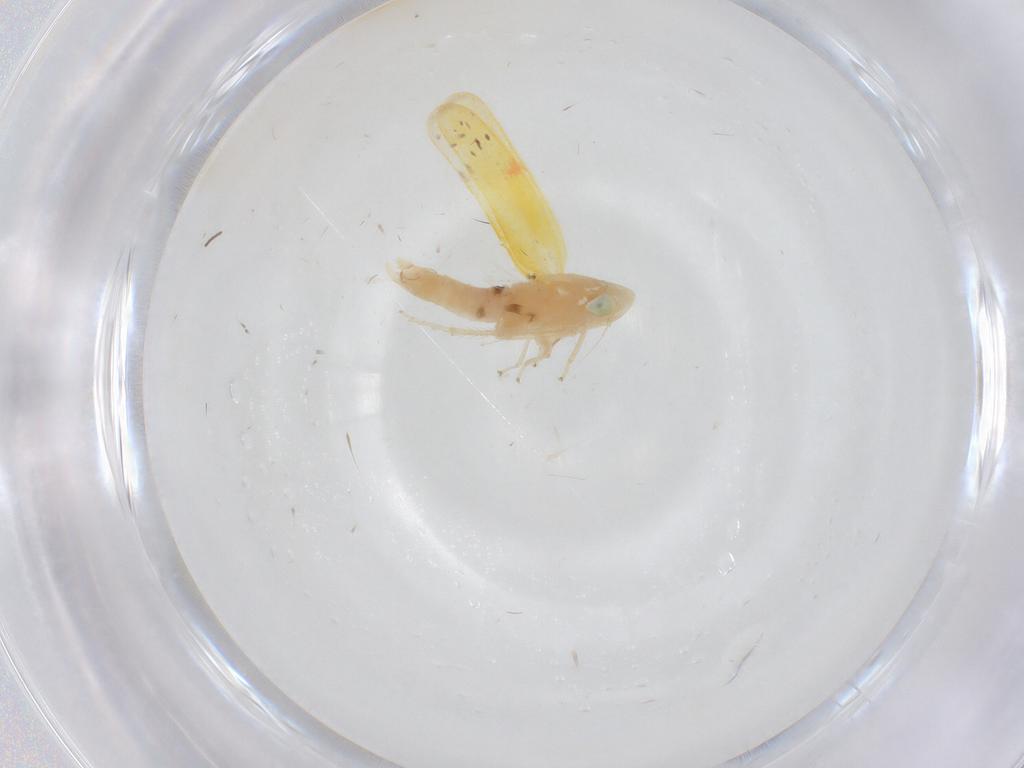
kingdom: Animalia
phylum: Arthropoda
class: Insecta
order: Hemiptera
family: Cicadellidae
